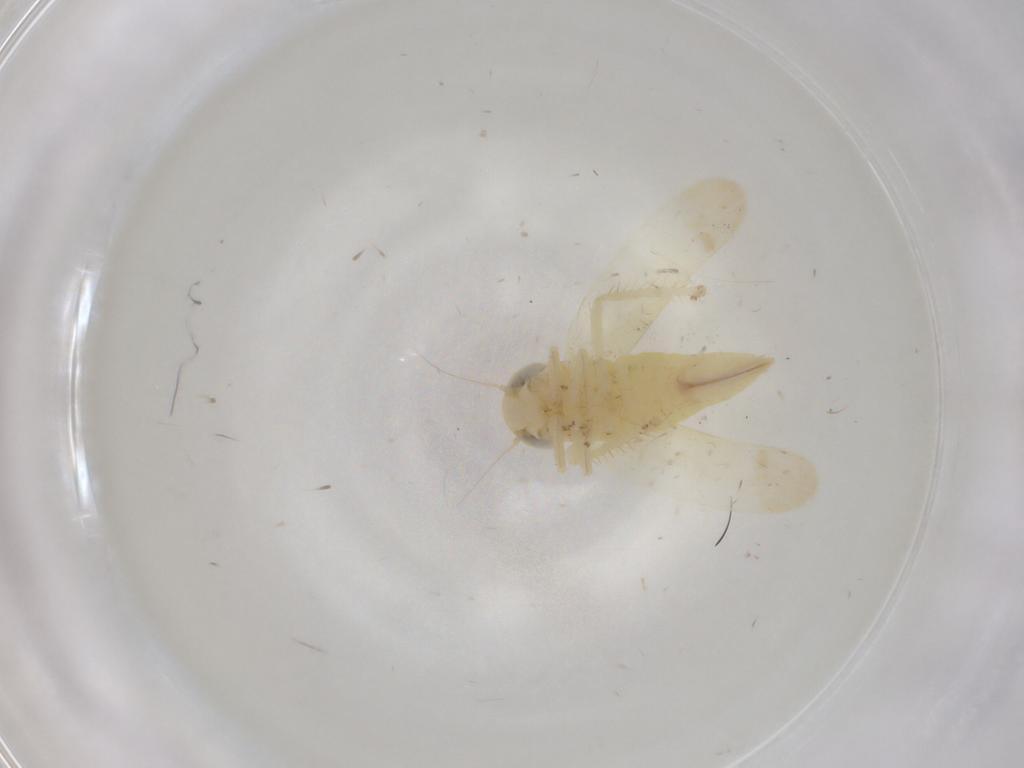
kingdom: Animalia
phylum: Arthropoda
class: Insecta
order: Hemiptera
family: Cicadellidae
